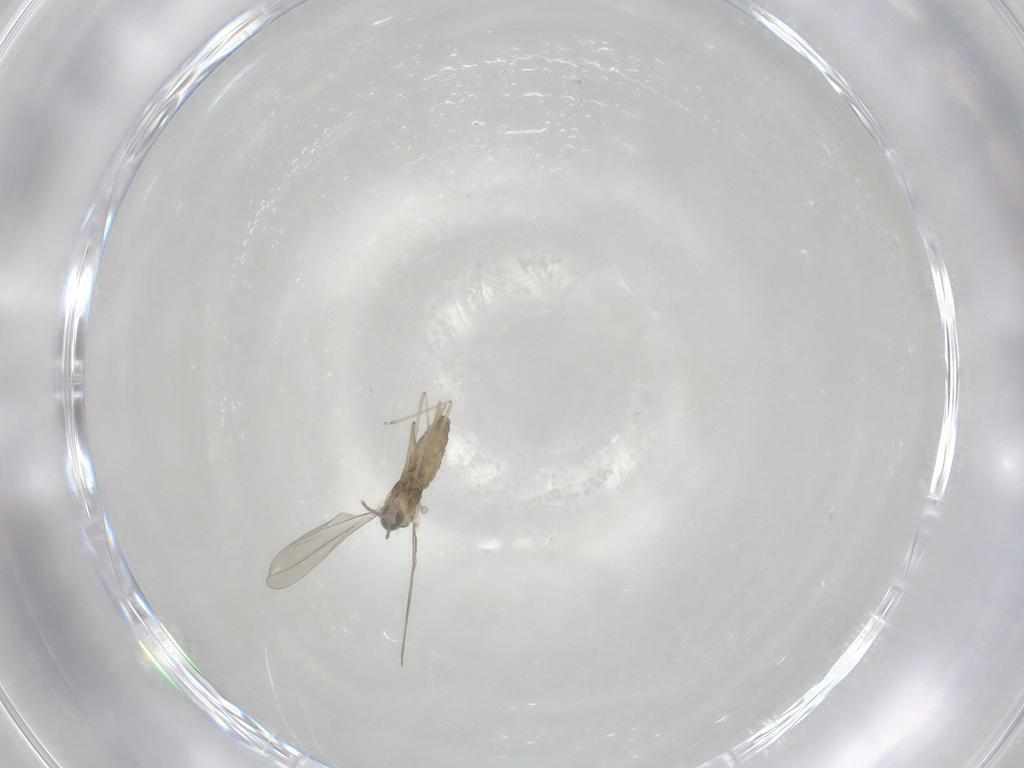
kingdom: Animalia
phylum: Arthropoda
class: Insecta
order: Diptera
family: Cecidomyiidae
